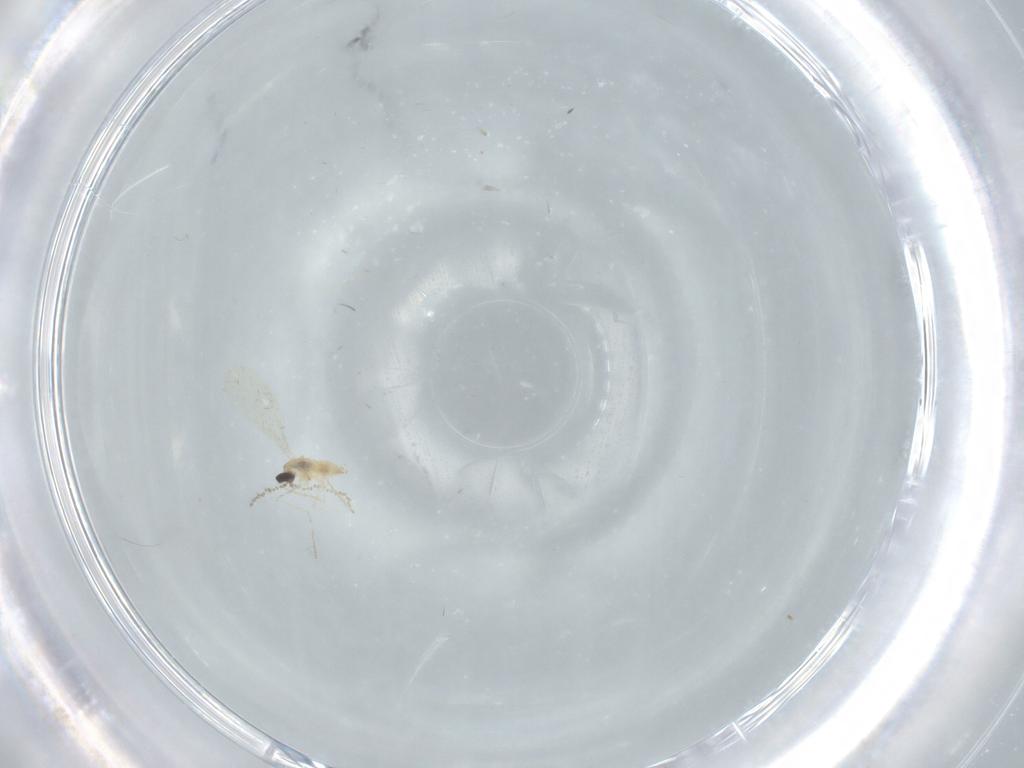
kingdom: Animalia
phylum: Arthropoda
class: Insecta
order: Diptera
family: Cecidomyiidae
